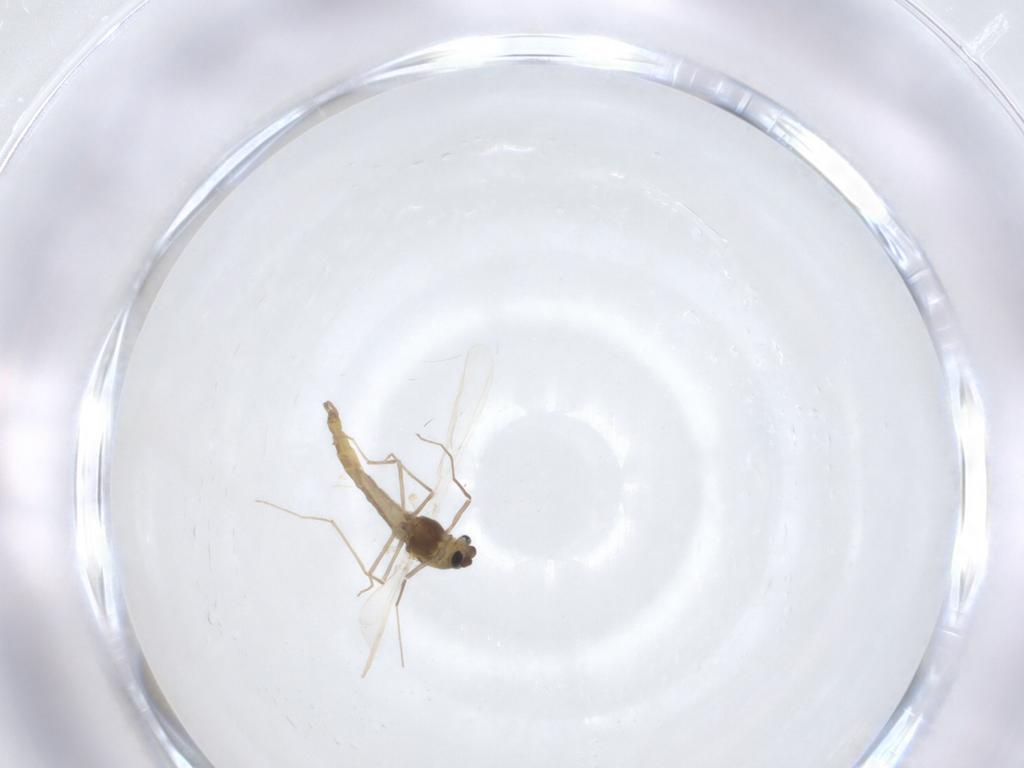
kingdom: Animalia
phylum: Arthropoda
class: Insecta
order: Diptera
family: Chironomidae
